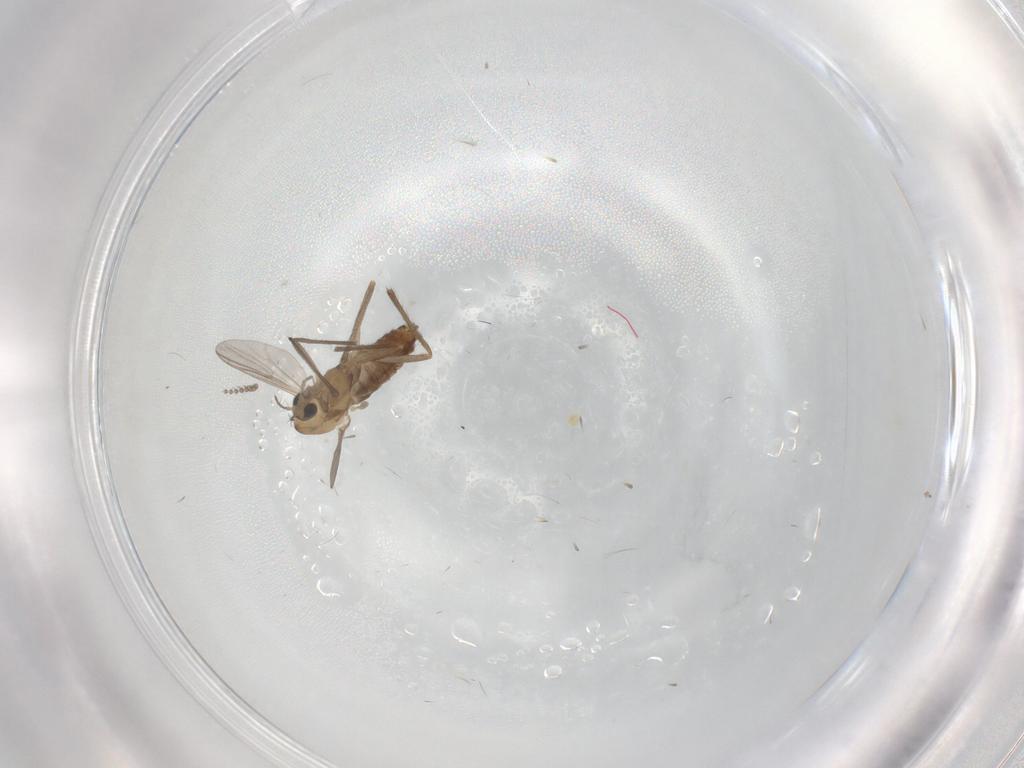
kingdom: Animalia
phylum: Arthropoda
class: Insecta
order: Diptera
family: Chironomidae
